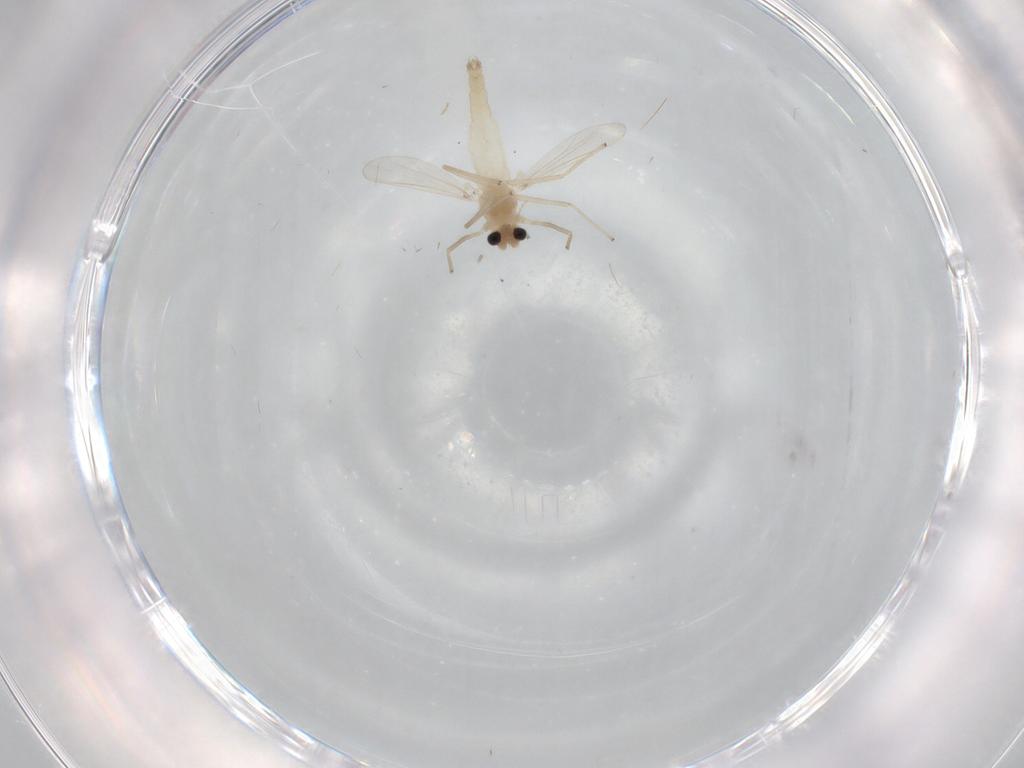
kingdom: Animalia
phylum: Arthropoda
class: Insecta
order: Diptera
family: Chironomidae
